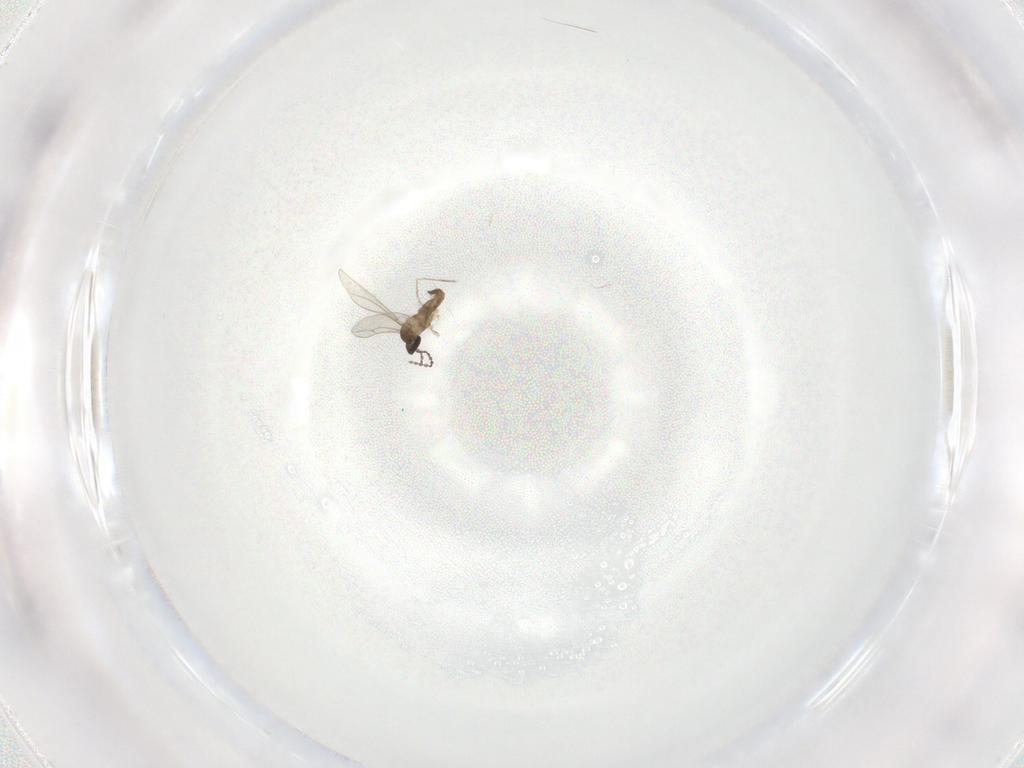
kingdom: Animalia
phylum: Arthropoda
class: Insecta
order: Diptera
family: Cecidomyiidae
